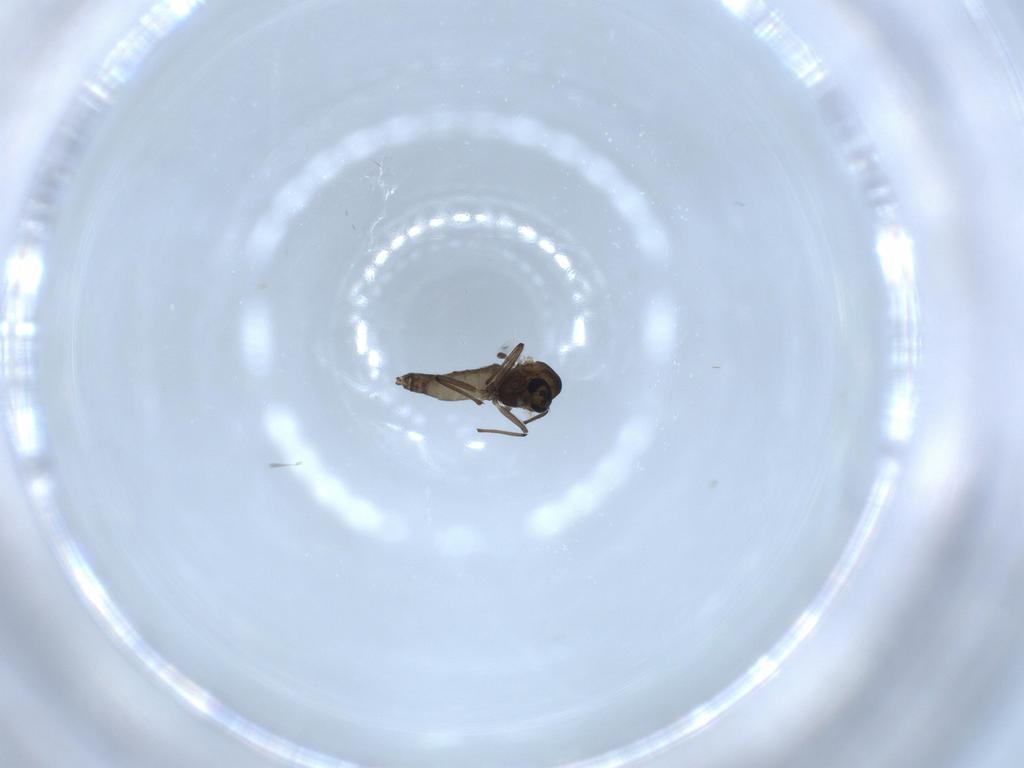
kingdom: Animalia
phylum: Arthropoda
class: Insecta
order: Diptera
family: Chironomidae
